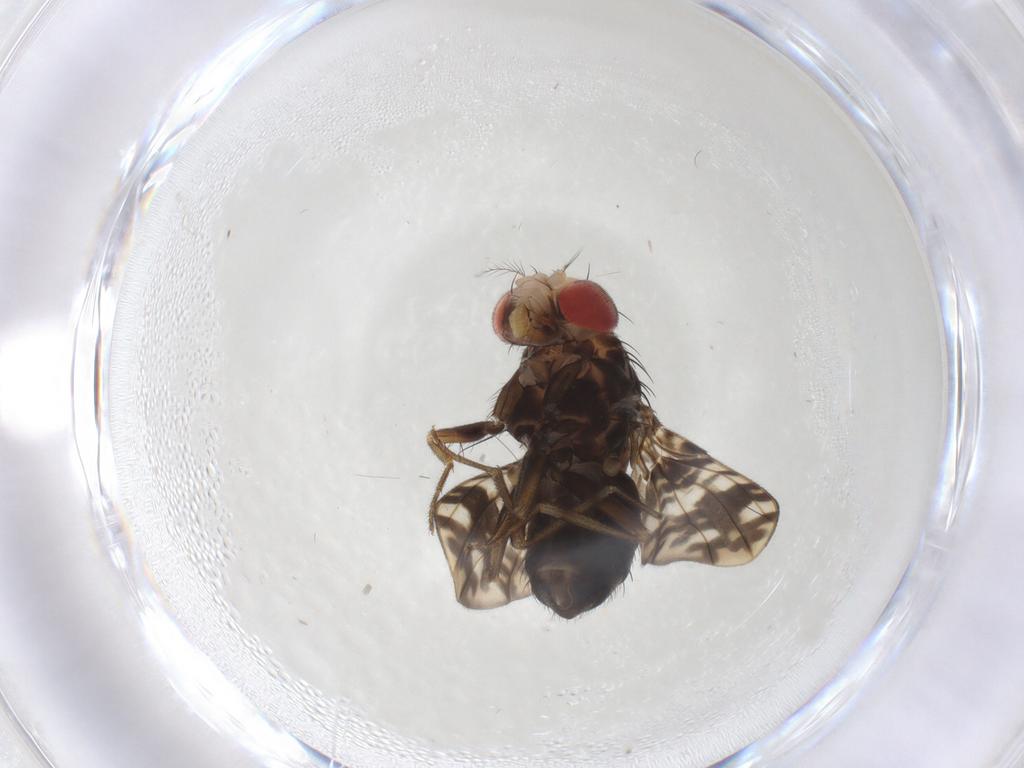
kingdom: Animalia
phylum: Arthropoda
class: Insecta
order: Diptera
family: Drosophilidae
